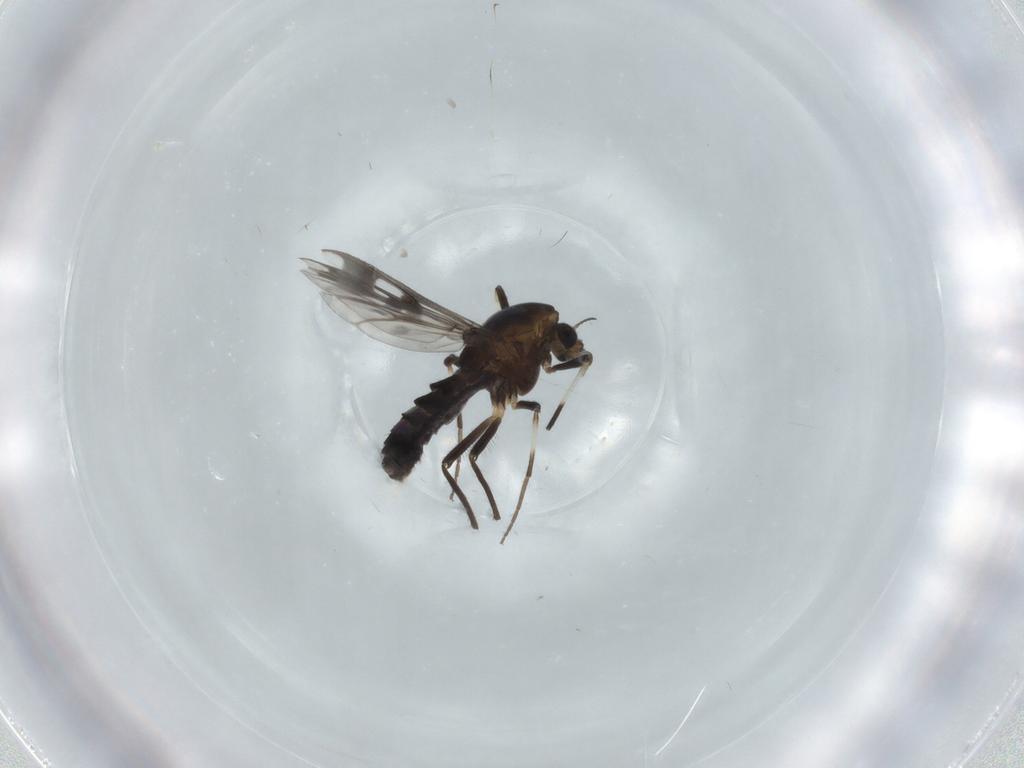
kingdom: Animalia
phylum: Arthropoda
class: Insecta
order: Diptera
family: Chironomidae
